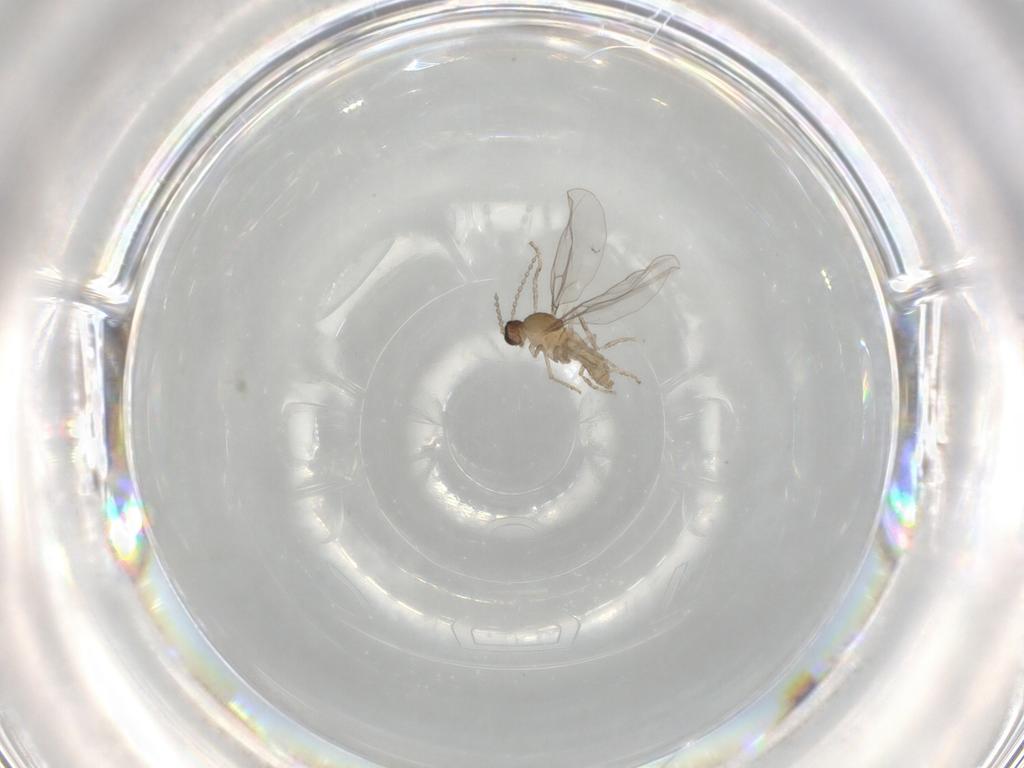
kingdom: Animalia
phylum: Arthropoda
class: Insecta
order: Diptera
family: Cecidomyiidae
